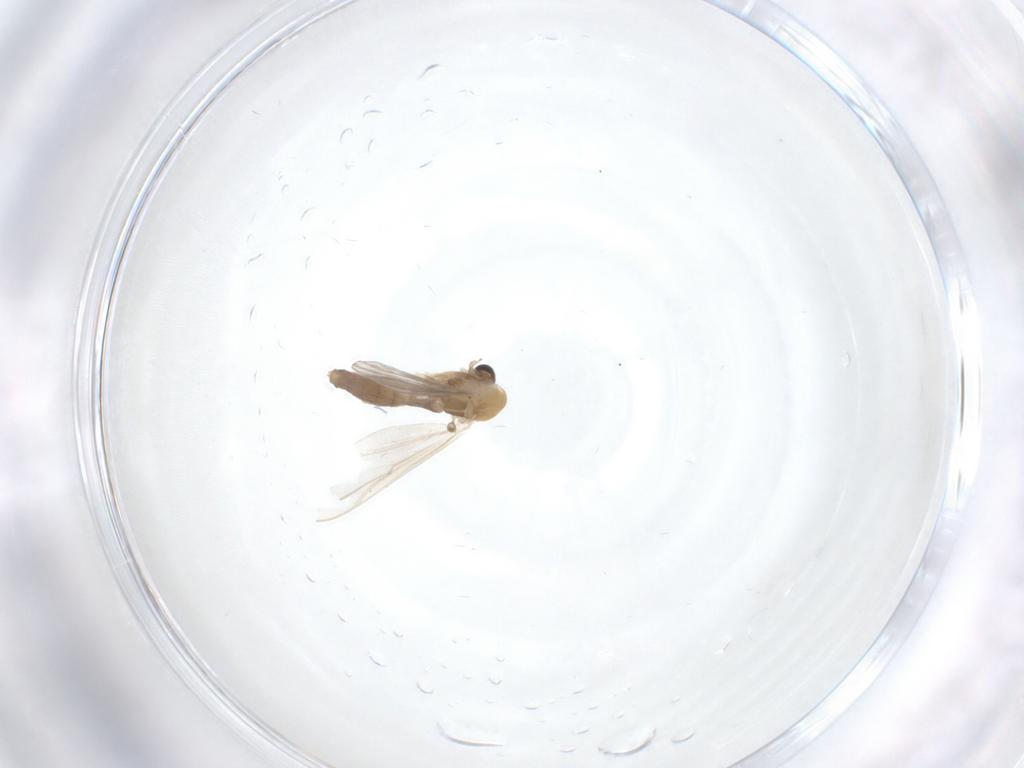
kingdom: Animalia
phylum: Arthropoda
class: Insecta
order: Diptera
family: Chironomidae
